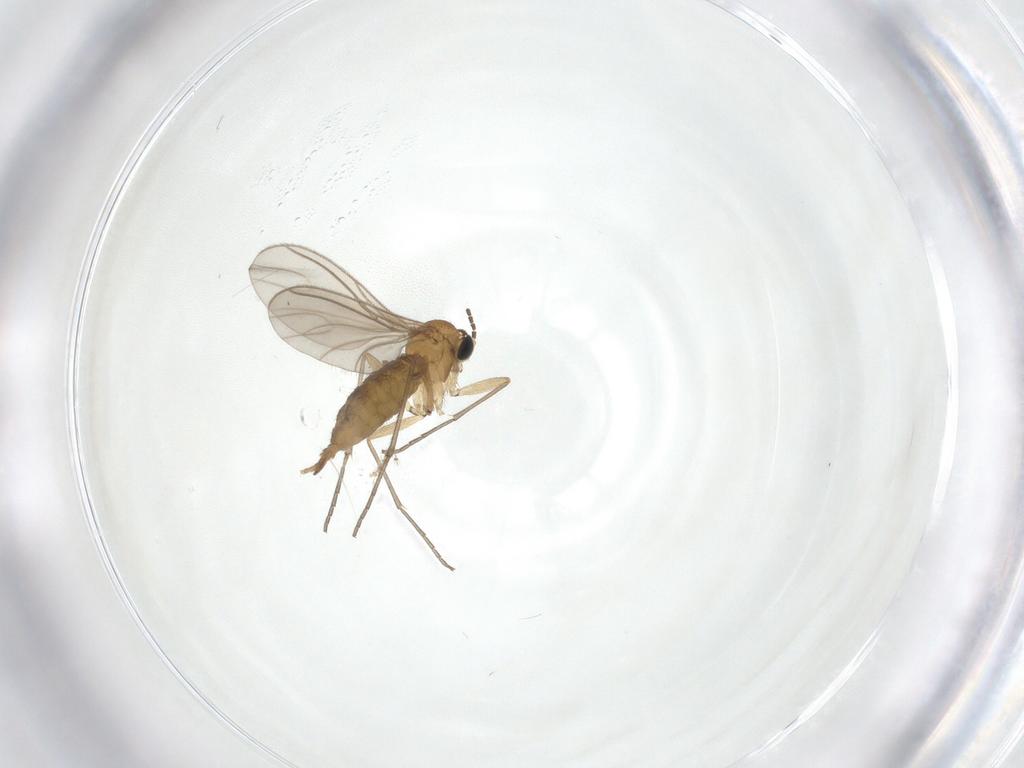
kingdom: Animalia
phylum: Arthropoda
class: Insecta
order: Diptera
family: Sciaridae
